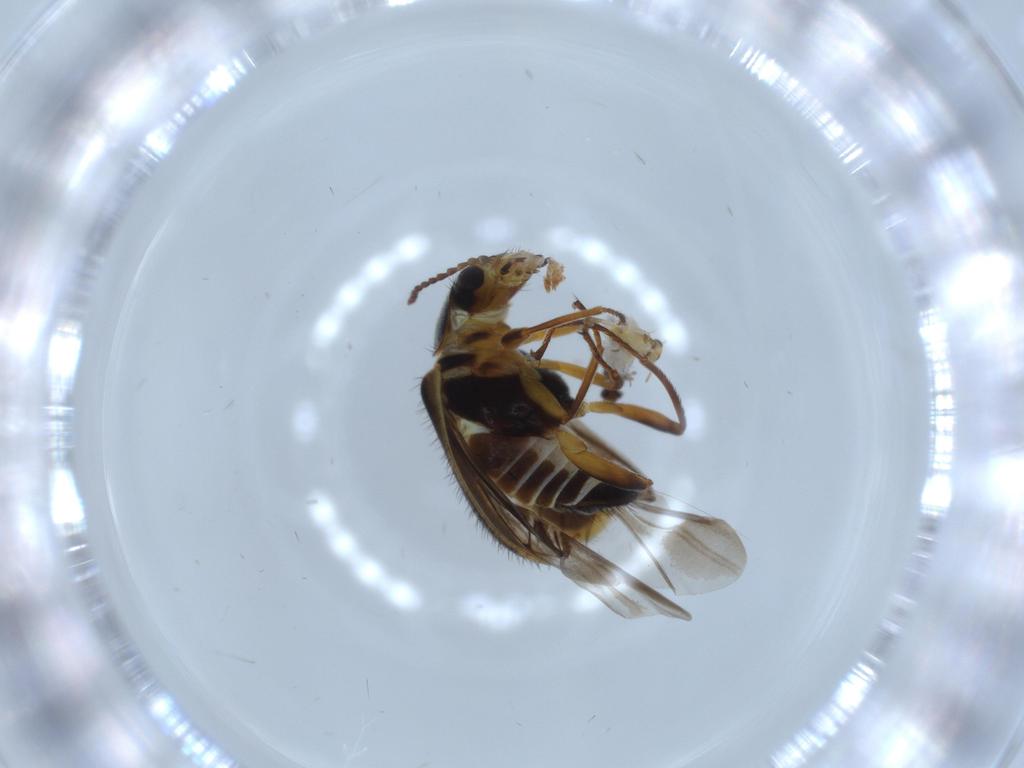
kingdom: Animalia
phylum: Arthropoda
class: Insecta
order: Coleoptera
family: Melyridae
